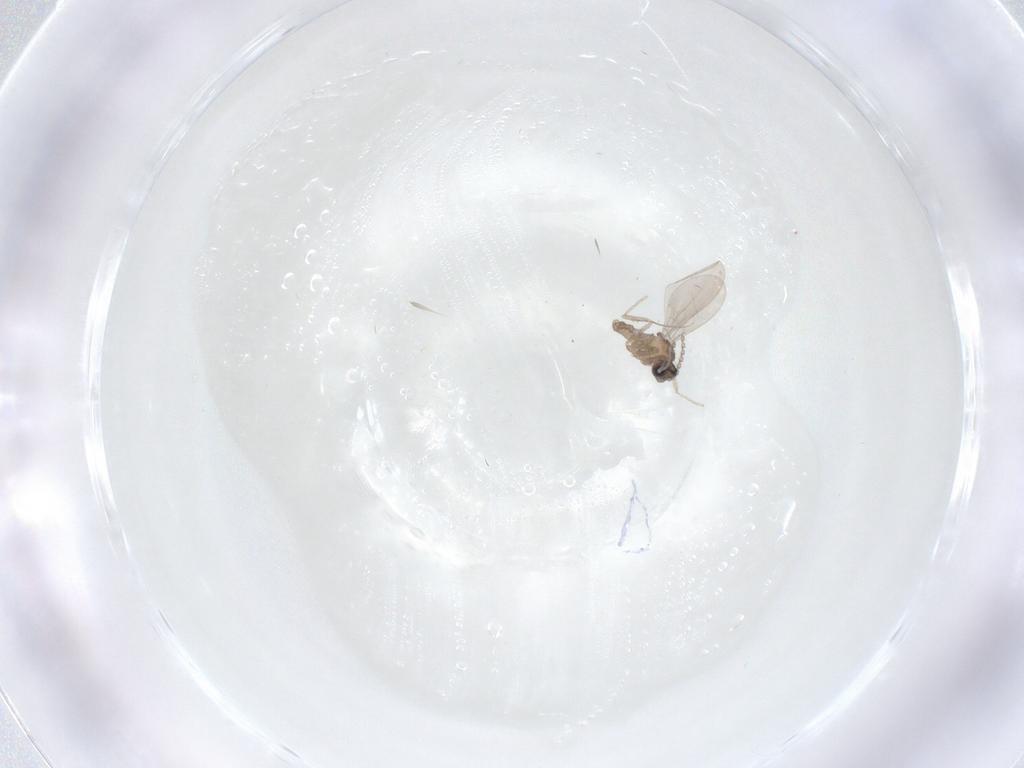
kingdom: Animalia
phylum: Arthropoda
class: Insecta
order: Diptera
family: Cecidomyiidae
